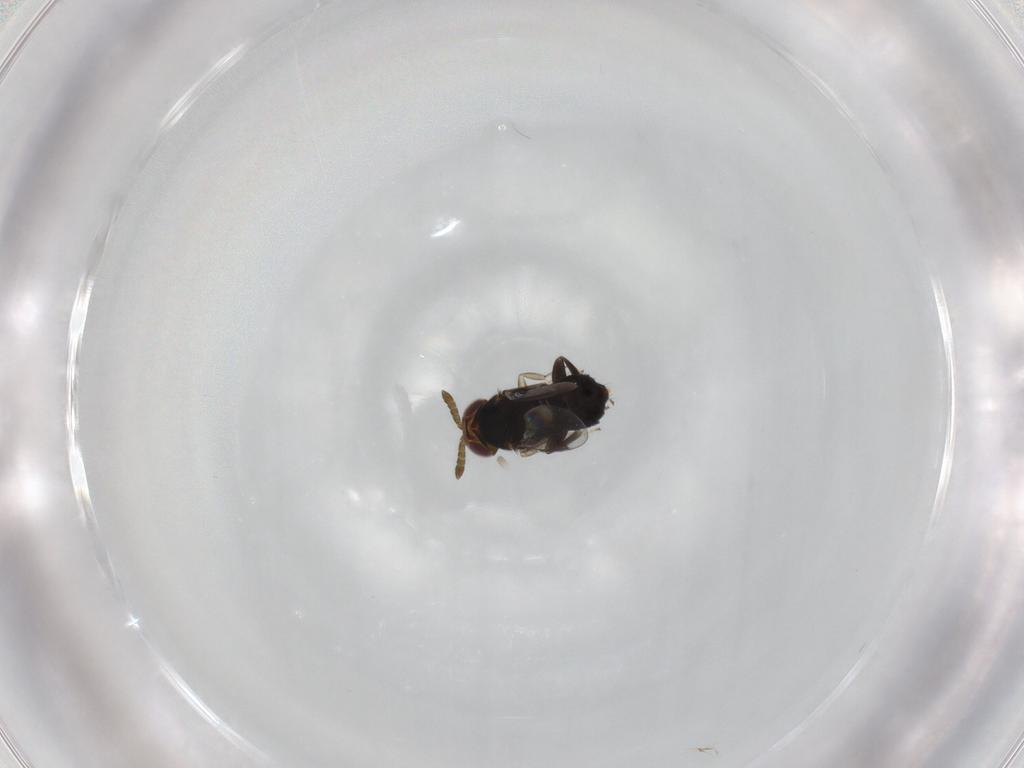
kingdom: Animalia
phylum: Arthropoda
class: Insecta
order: Hymenoptera
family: Aphelinidae
